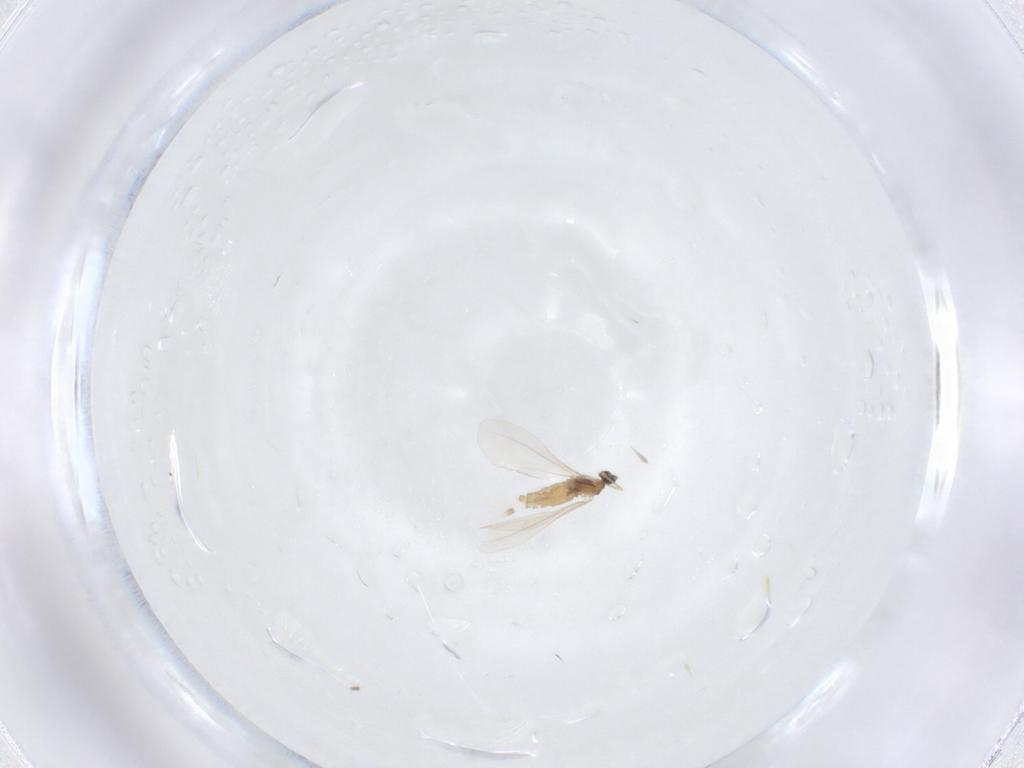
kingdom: Animalia
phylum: Arthropoda
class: Insecta
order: Diptera
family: Cecidomyiidae
